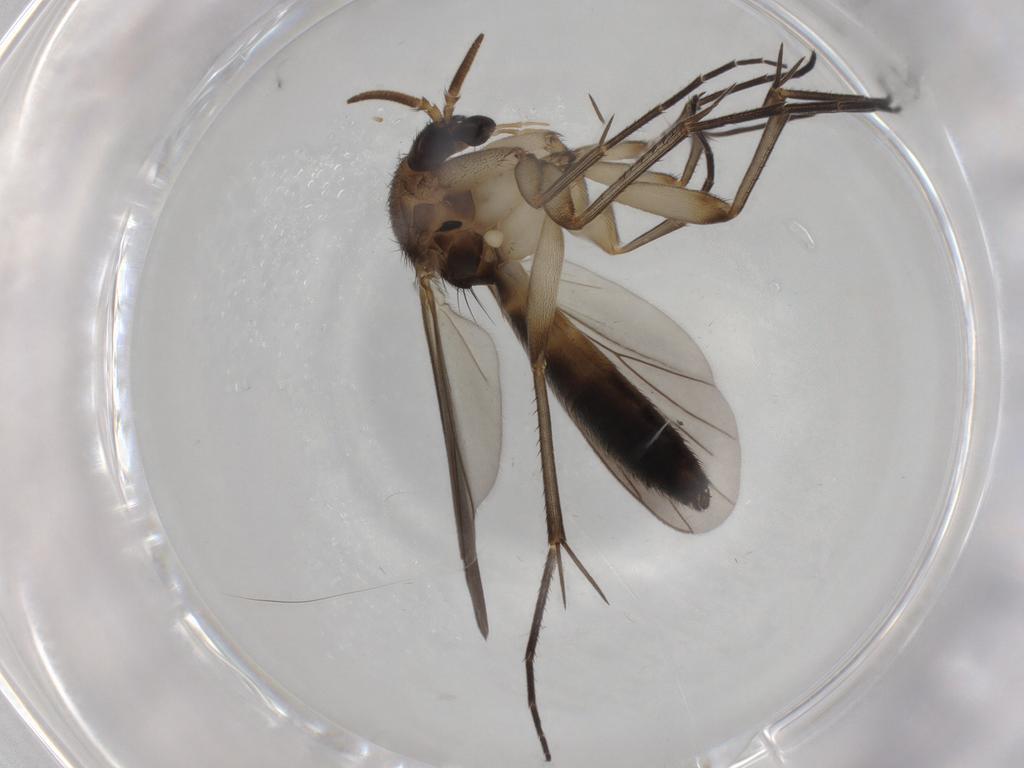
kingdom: Animalia
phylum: Arthropoda
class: Insecta
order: Diptera
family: Mycetophilidae
